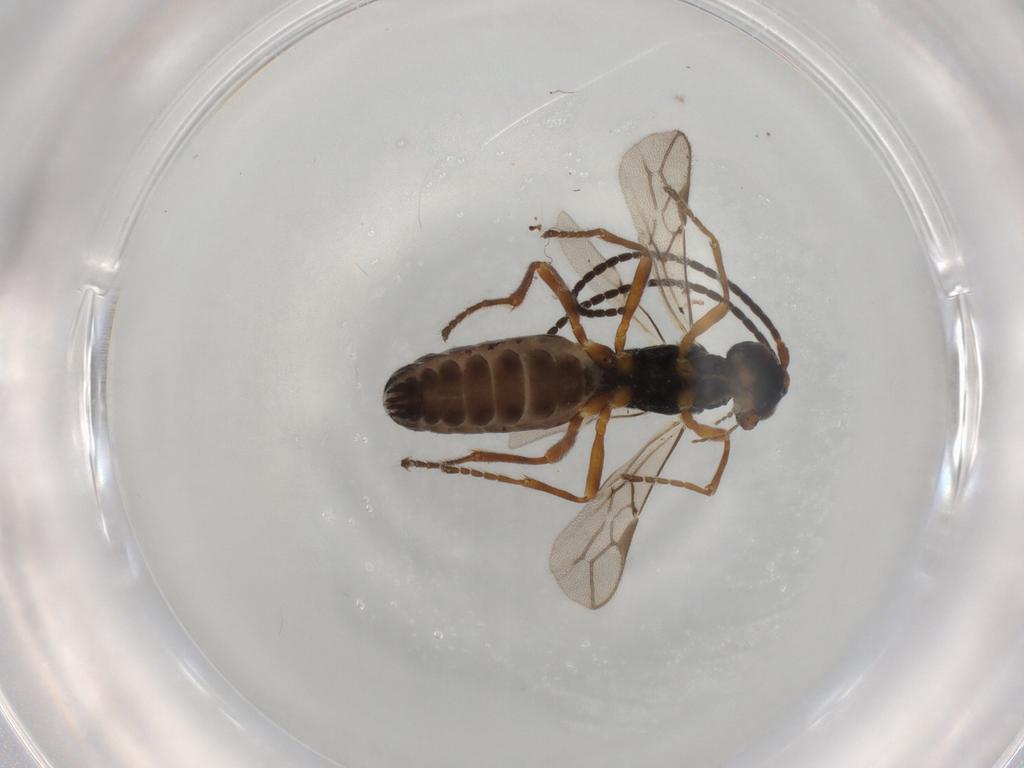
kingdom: Animalia
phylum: Arthropoda
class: Insecta
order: Hymenoptera
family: Braconidae
